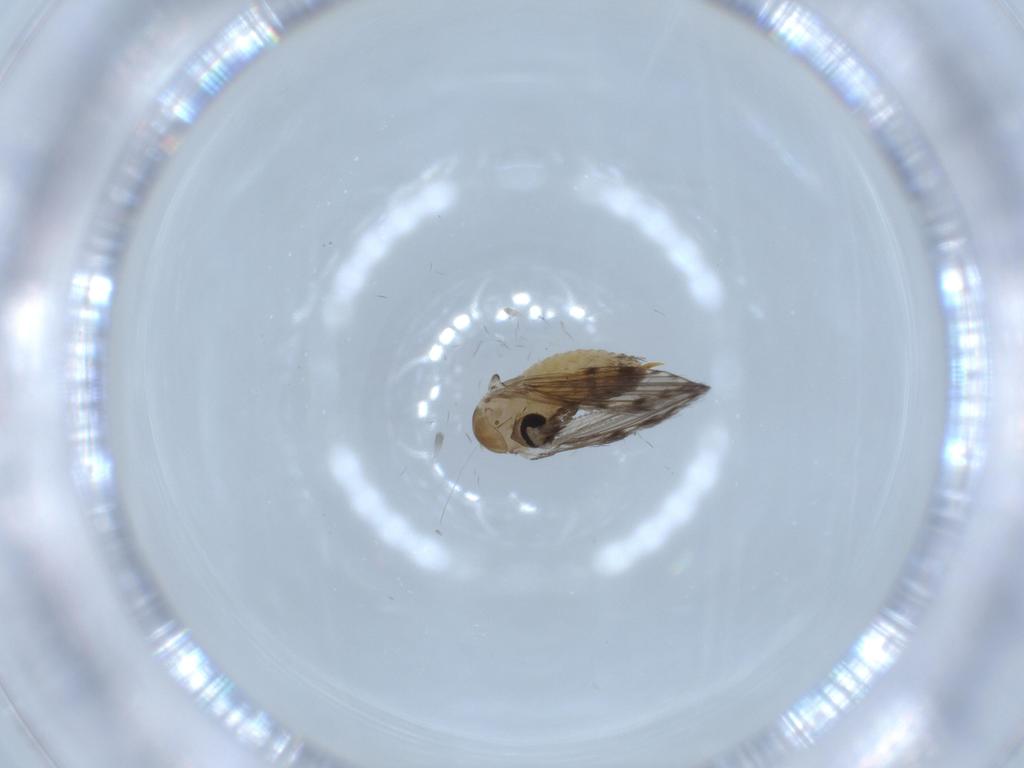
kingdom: Animalia
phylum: Arthropoda
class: Insecta
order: Diptera
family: Psychodidae
